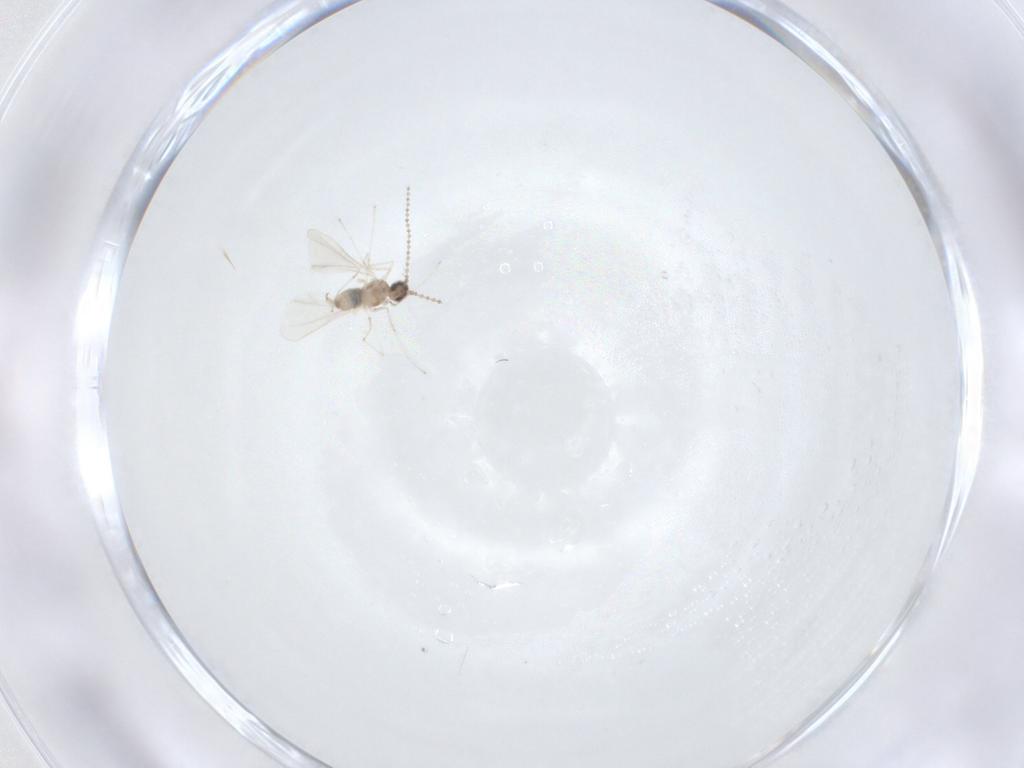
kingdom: Animalia
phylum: Arthropoda
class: Insecta
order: Diptera
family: Cecidomyiidae
